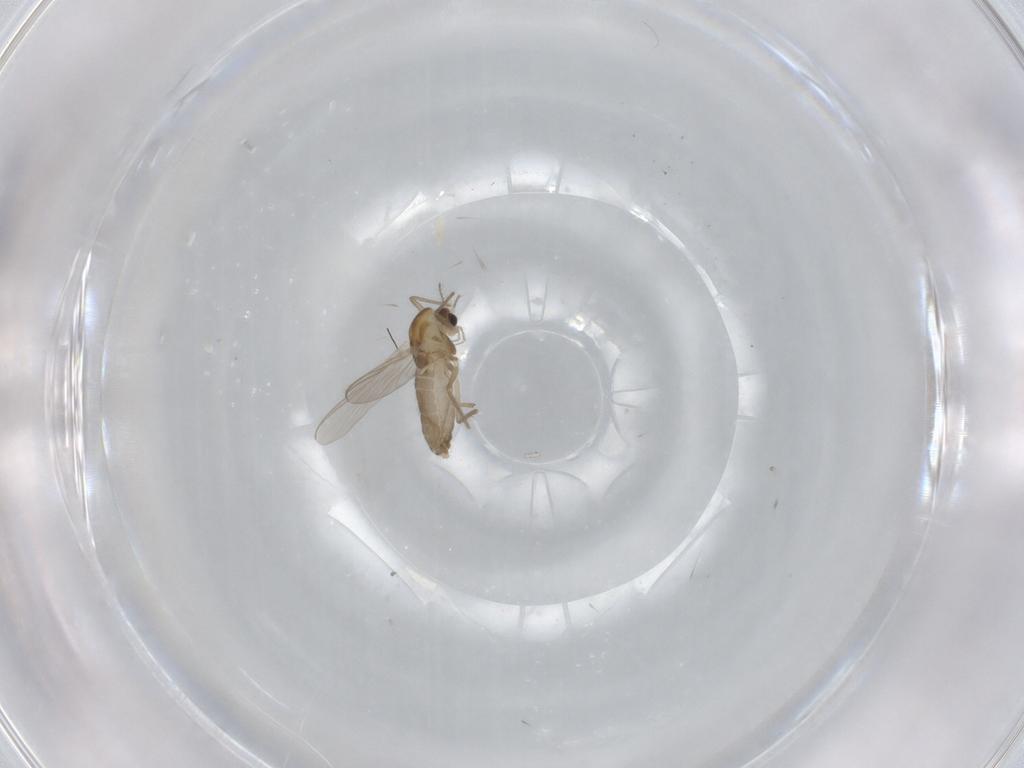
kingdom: Animalia
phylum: Arthropoda
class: Insecta
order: Diptera
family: Chironomidae
